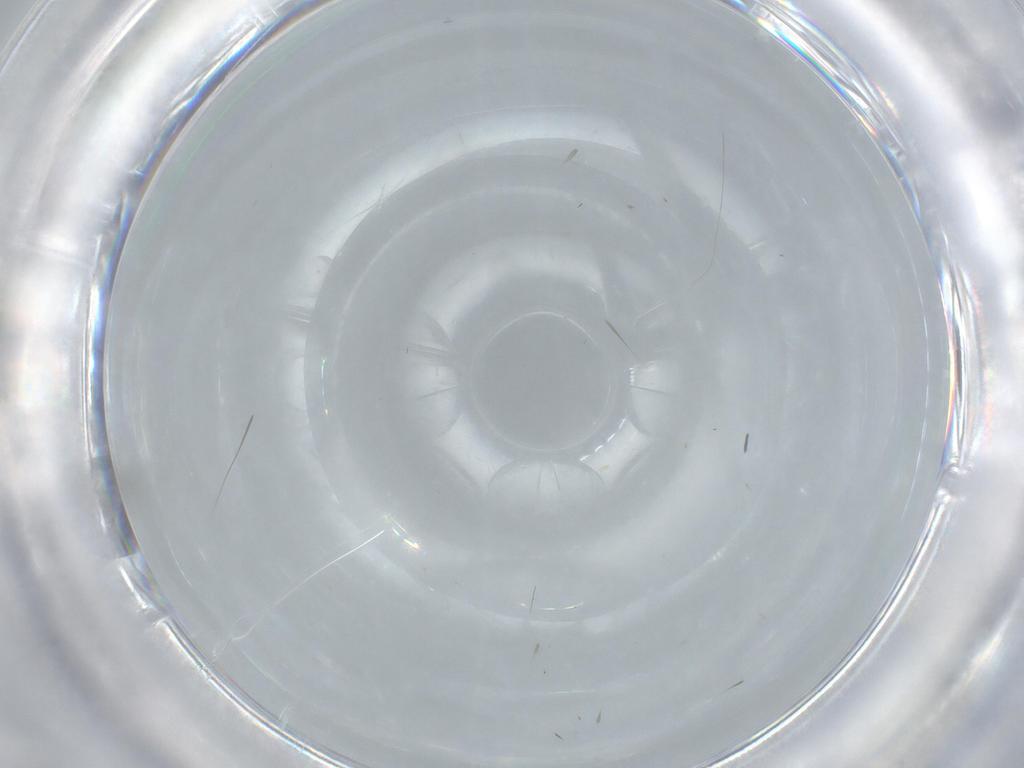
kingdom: Animalia
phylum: Arthropoda
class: Insecta
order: Diptera
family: Cecidomyiidae
